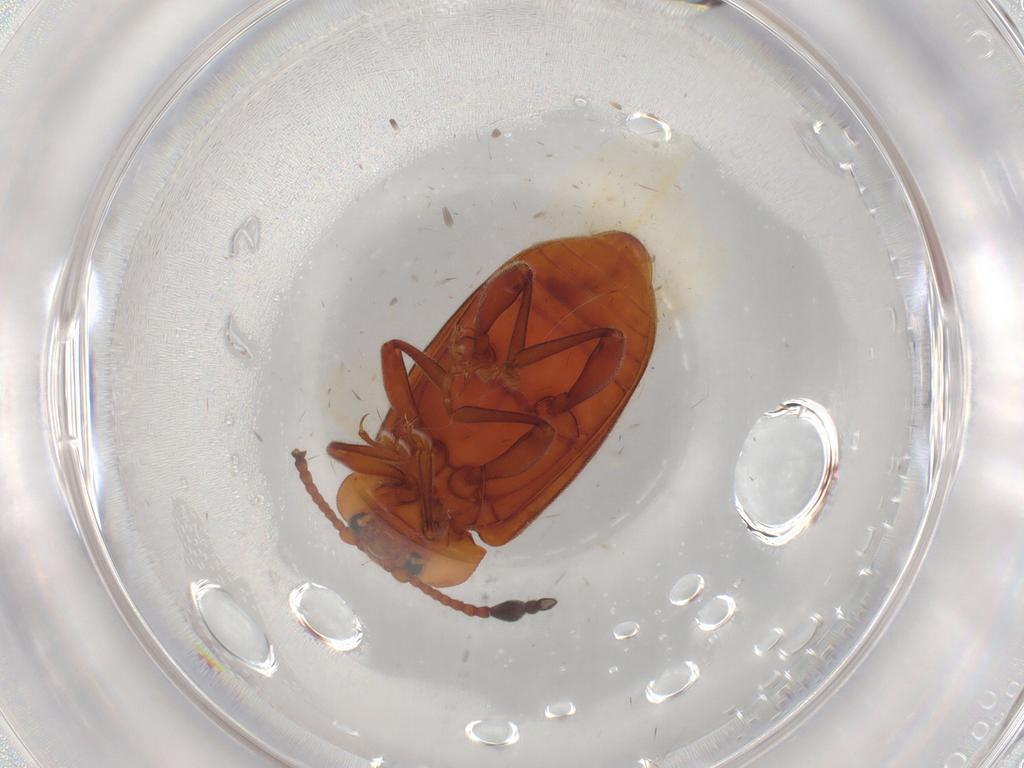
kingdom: Animalia
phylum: Arthropoda
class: Insecta
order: Coleoptera
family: Endomychidae
